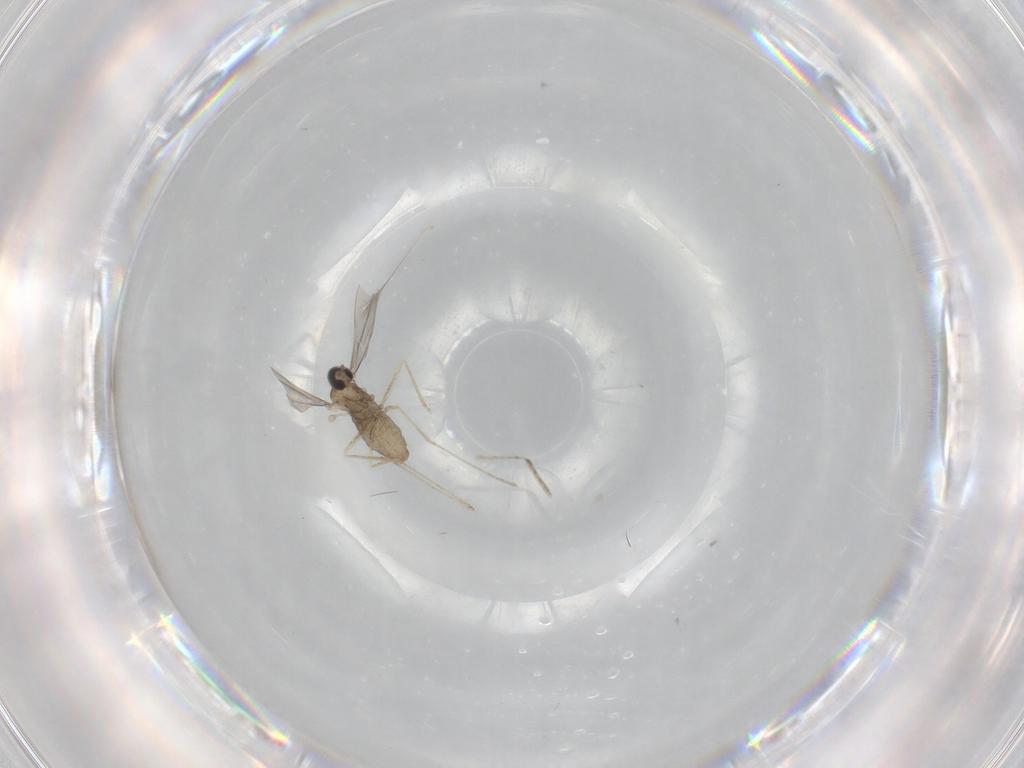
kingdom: Animalia
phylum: Arthropoda
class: Insecta
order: Diptera
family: Cecidomyiidae
